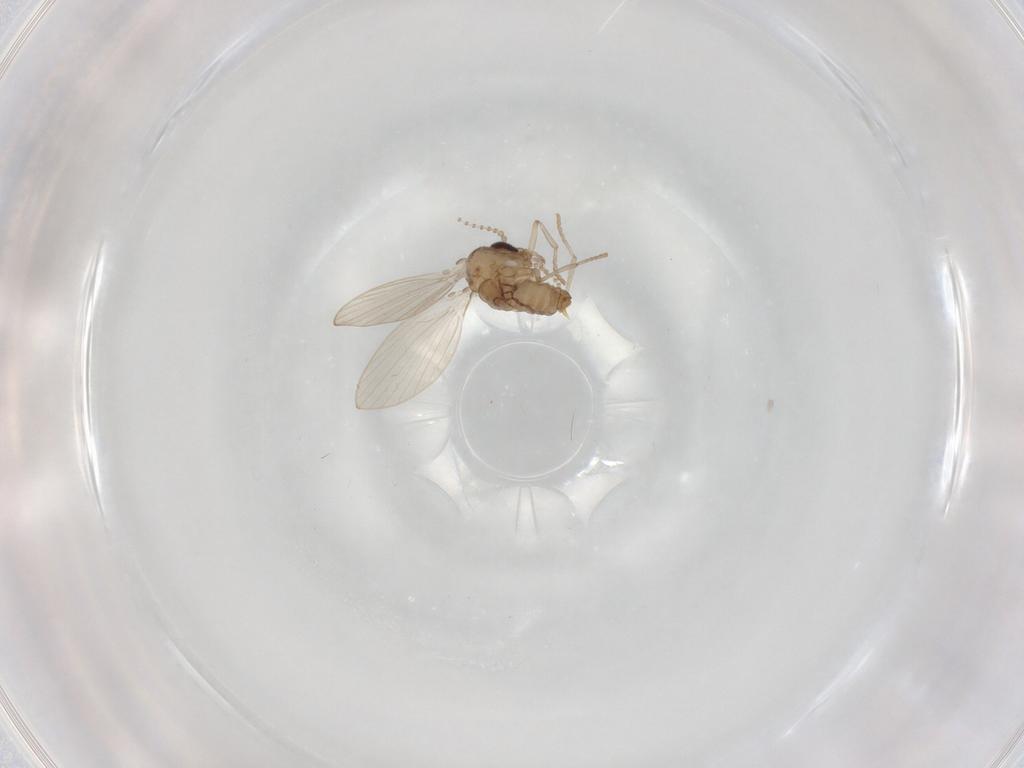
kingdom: Animalia
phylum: Arthropoda
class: Insecta
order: Diptera
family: Psychodidae
